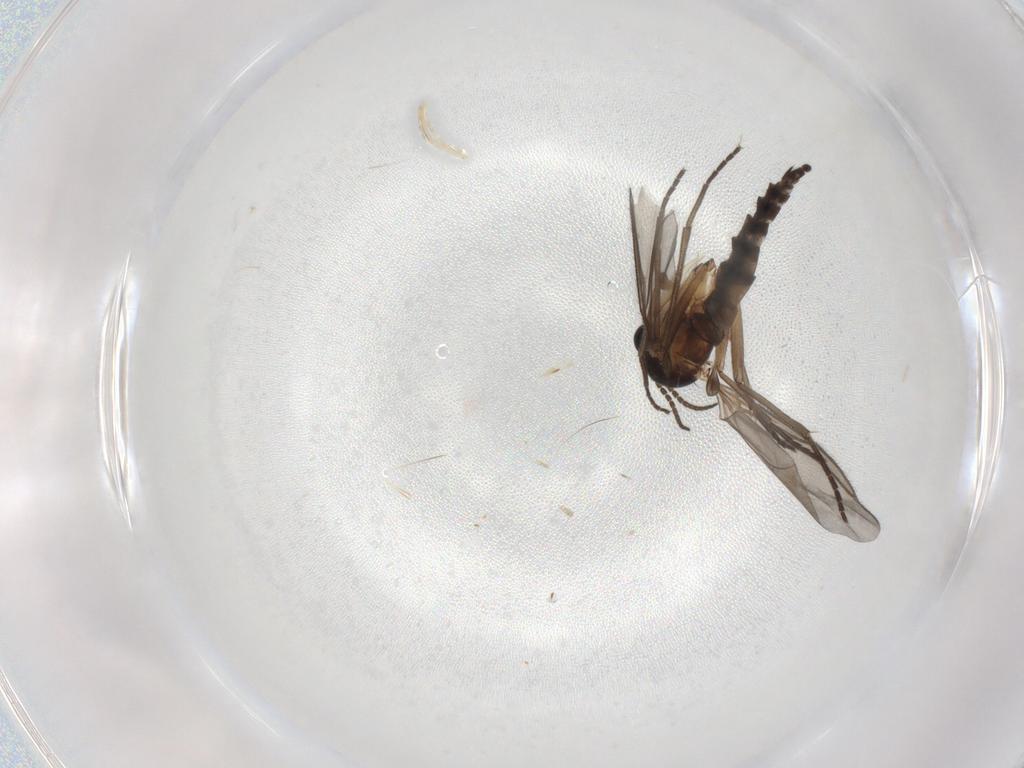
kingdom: Animalia
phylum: Arthropoda
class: Insecta
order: Diptera
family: Sciaridae
